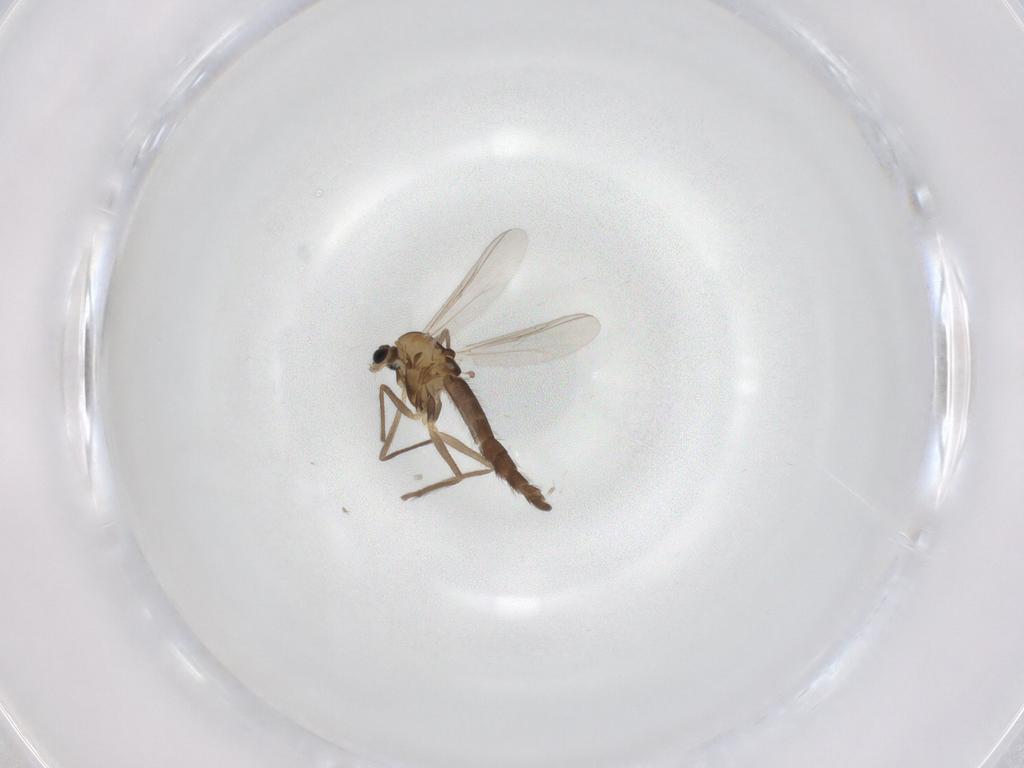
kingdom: Animalia
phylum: Arthropoda
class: Insecta
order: Diptera
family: Chironomidae
